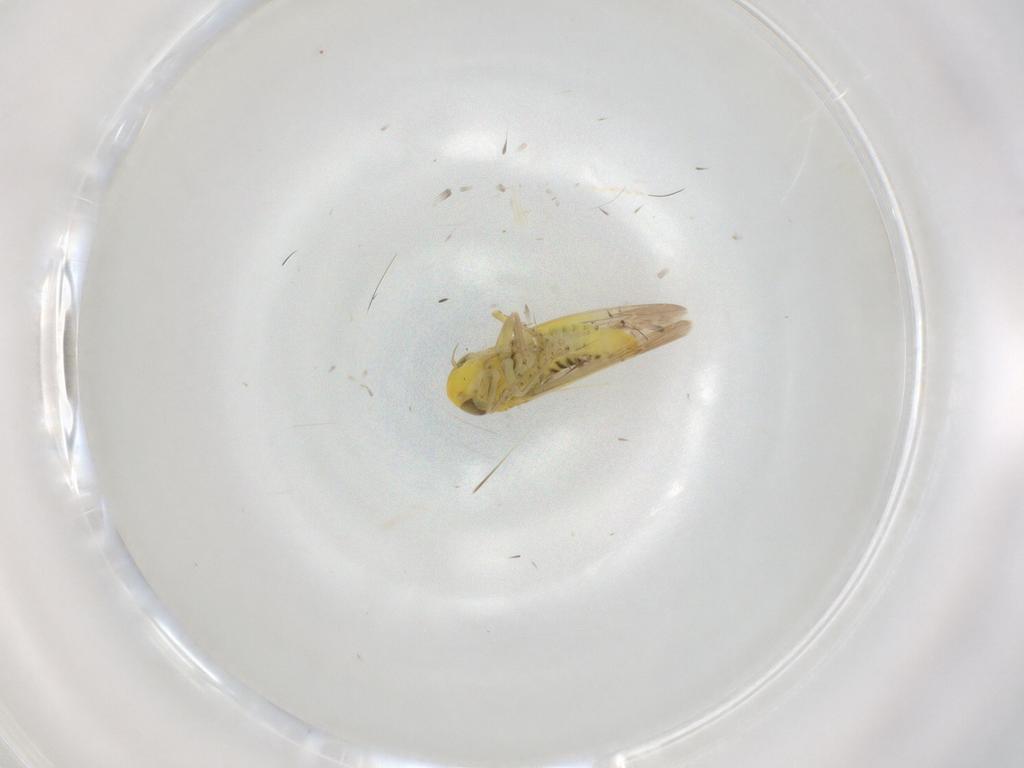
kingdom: Animalia
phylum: Arthropoda
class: Insecta
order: Hemiptera
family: Cicadellidae
